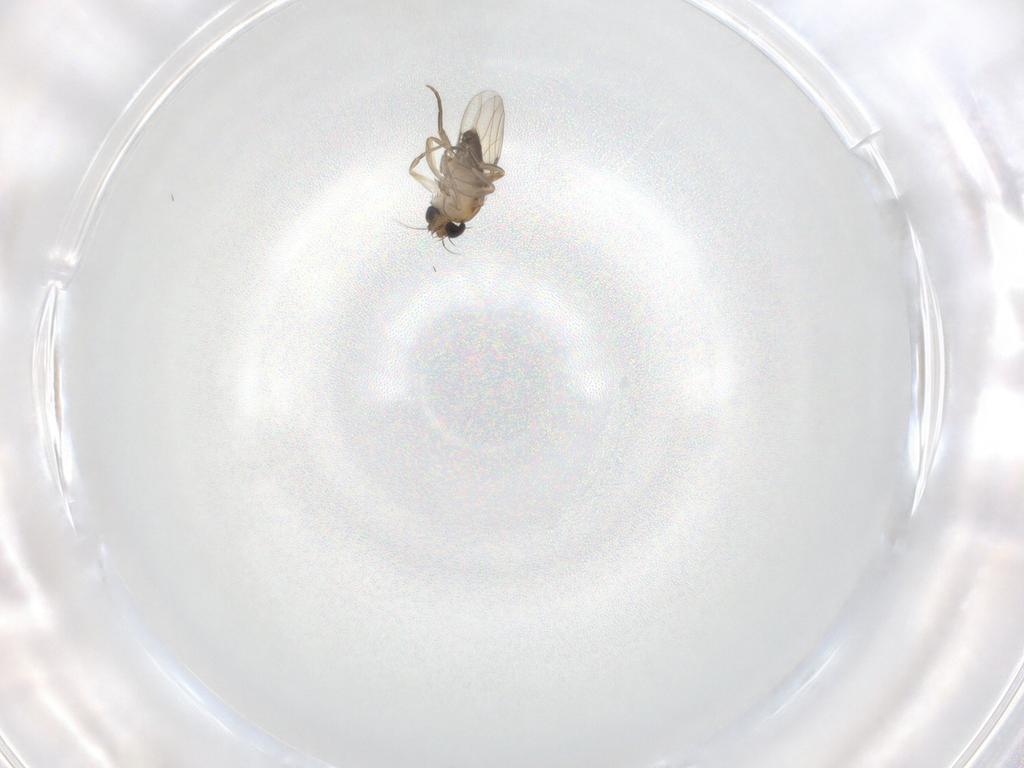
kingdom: Animalia
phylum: Arthropoda
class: Insecta
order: Diptera
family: Phoridae
